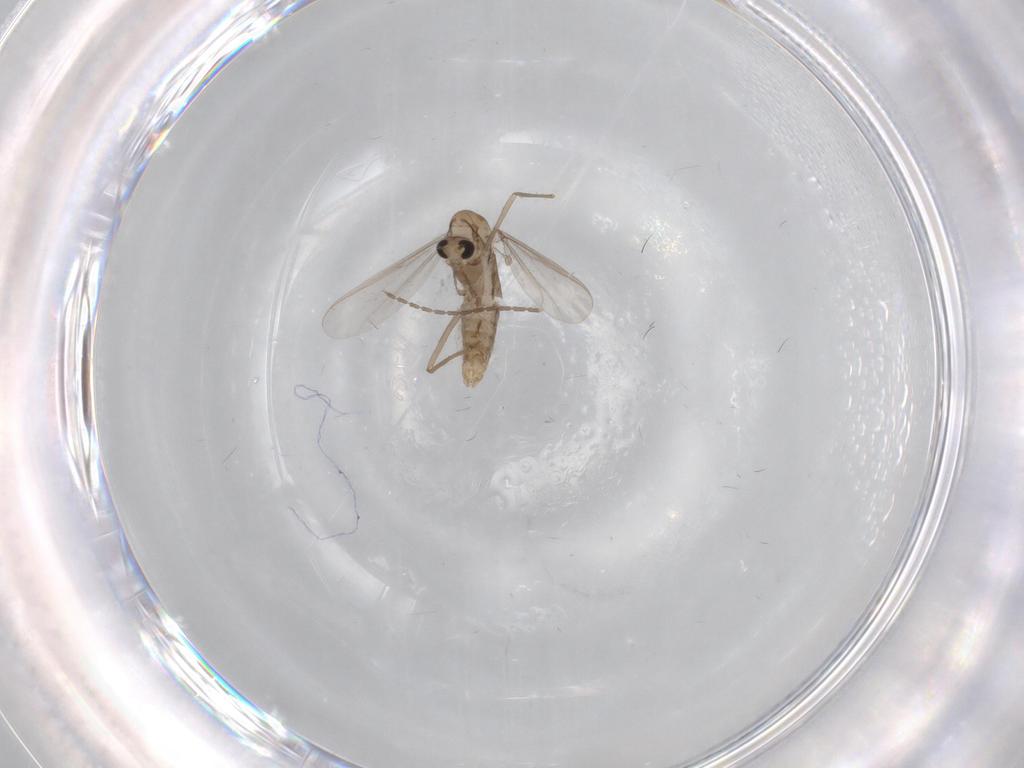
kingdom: Animalia
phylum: Arthropoda
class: Insecta
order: Diptera
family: Chironomidae
